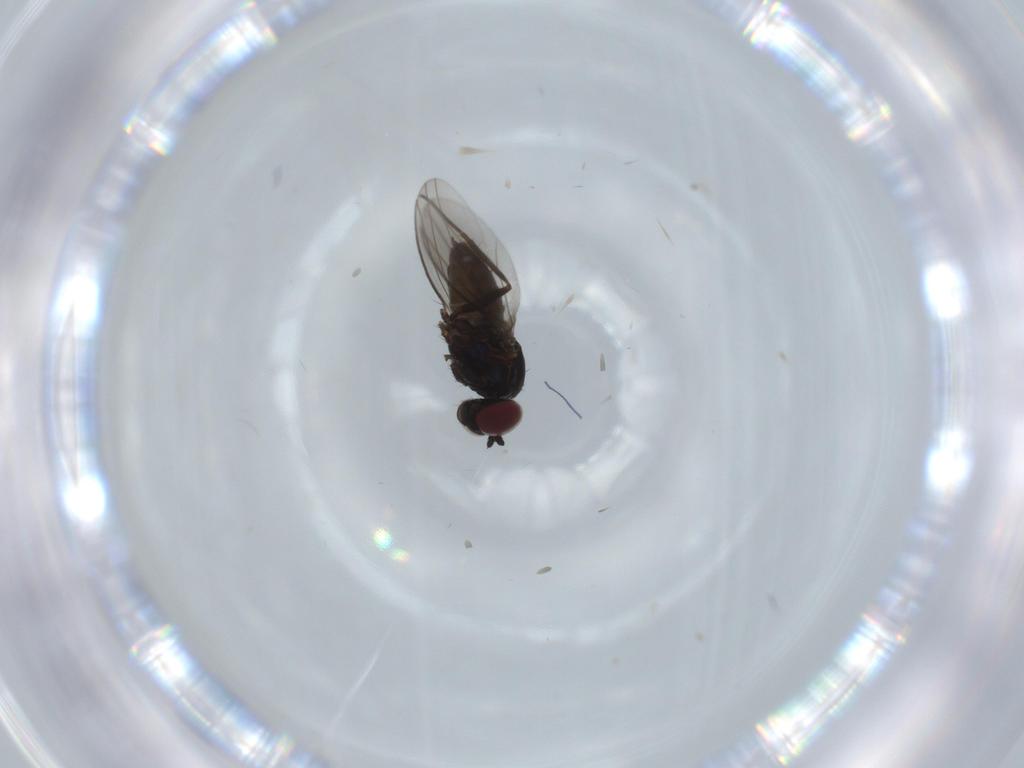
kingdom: Animalia
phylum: Arthropoda
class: Insecta
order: Diptera
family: Dolichopodidae
